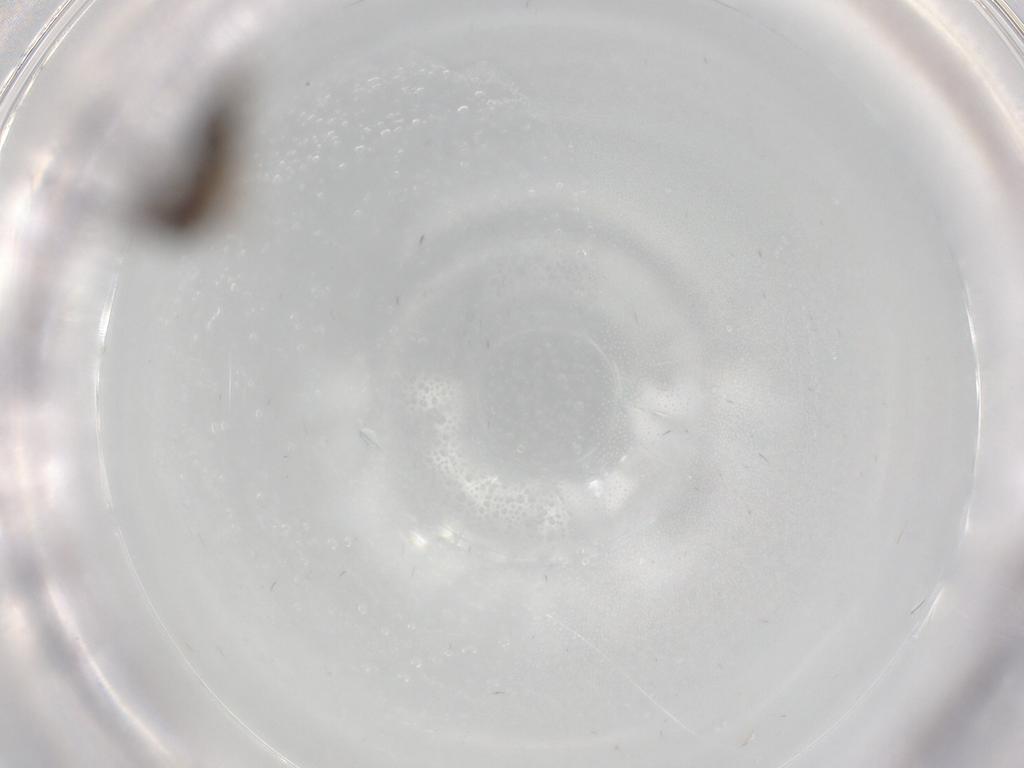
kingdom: Animalia
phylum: Arthropoda
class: Insecta
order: Diptera
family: Sciaridae
